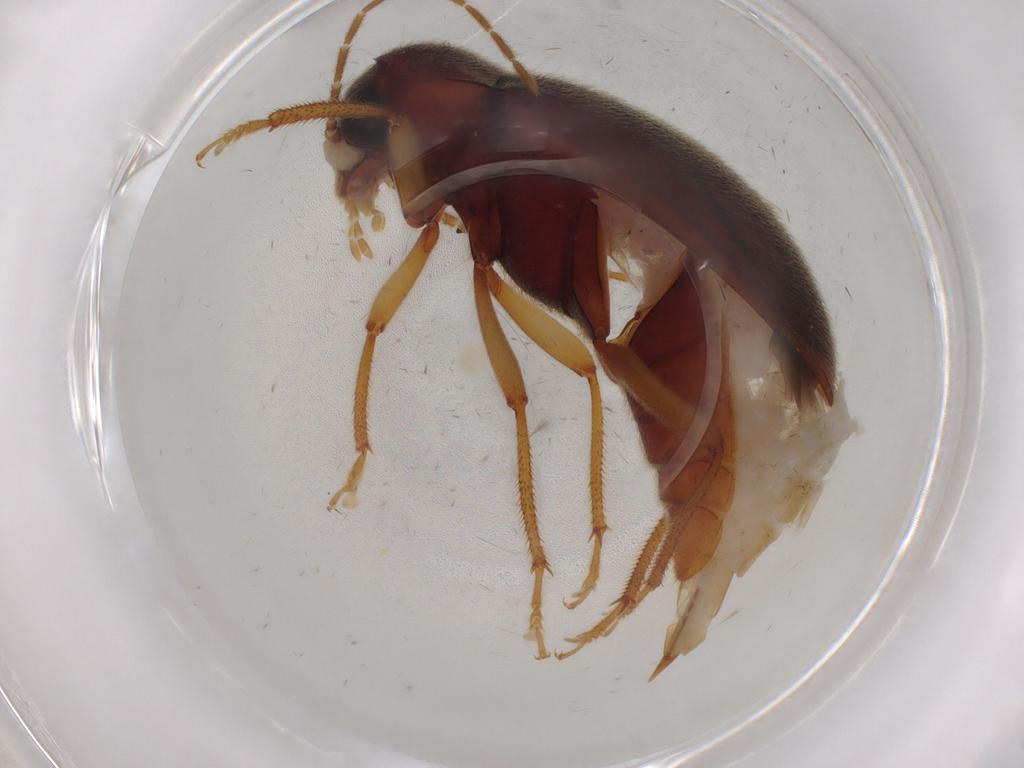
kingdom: Animalia
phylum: Arthropoda
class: Insecta
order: Coleoptera
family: Ptilodactylidae
